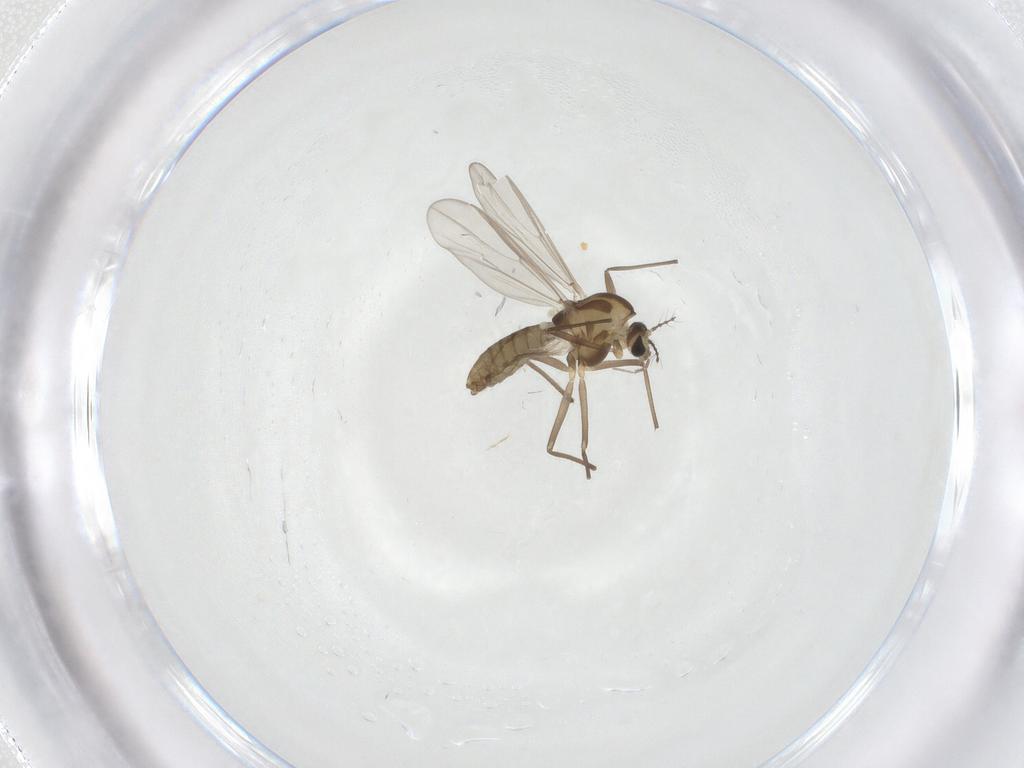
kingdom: Animalia
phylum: Arthropoda
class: Insecta
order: Diptera
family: Chironomidae
